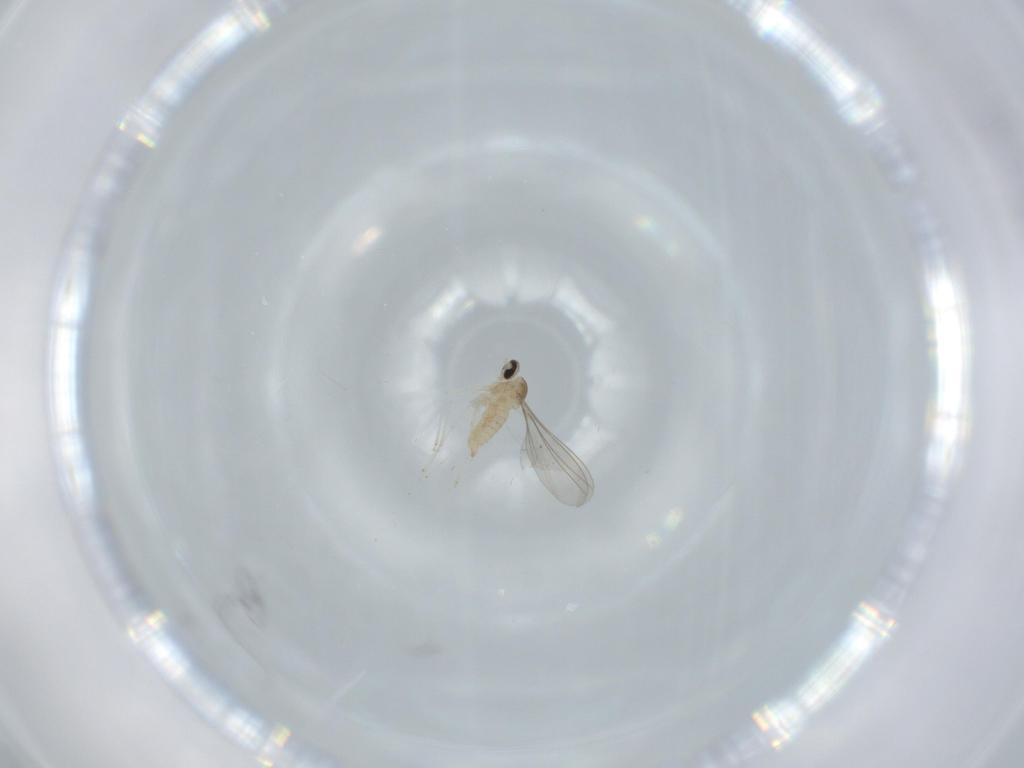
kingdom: Animalia
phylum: Arthropoda
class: Insecta
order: Diptera
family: Cecidomyiidae
